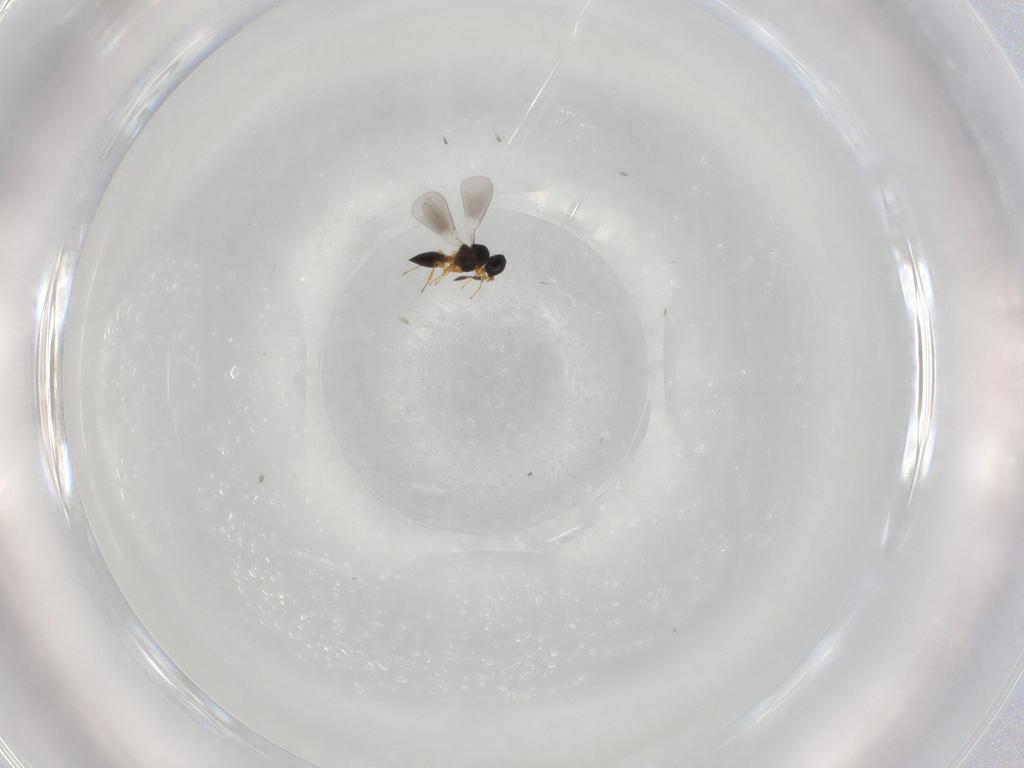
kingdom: Animalia
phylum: Arthropoda
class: Insecta
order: Hymenoptera
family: Platygastridae
